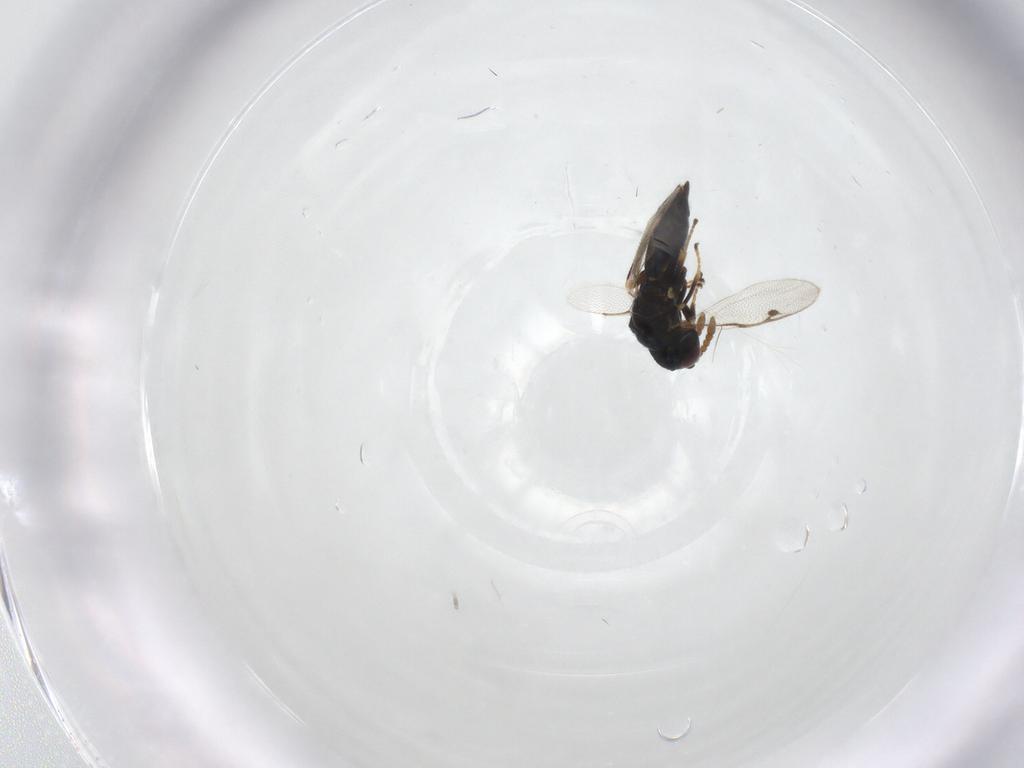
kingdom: Animalia
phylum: Arthropoda
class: Insecta
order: Hymenoptera
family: Pirenidae
